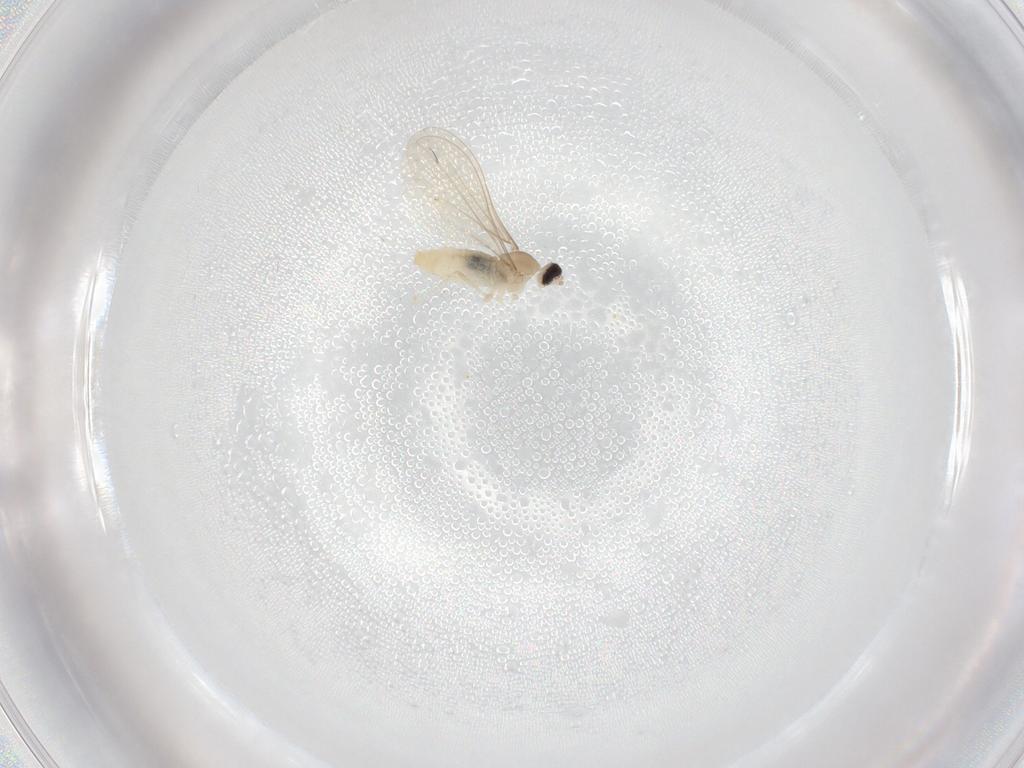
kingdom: Animalia
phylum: Arthropoda
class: Insecta
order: Diptera
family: Cecidomyiidae
